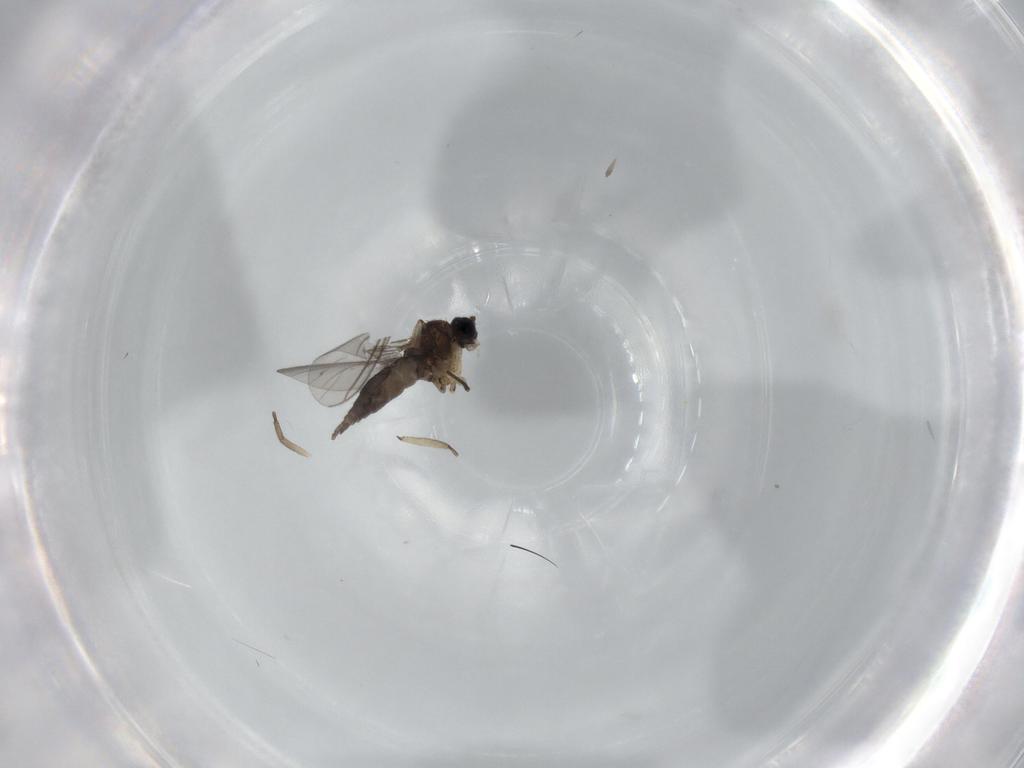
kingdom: Animalia
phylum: Arthropoda
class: Insecta
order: Diptera
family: Sciaridae
